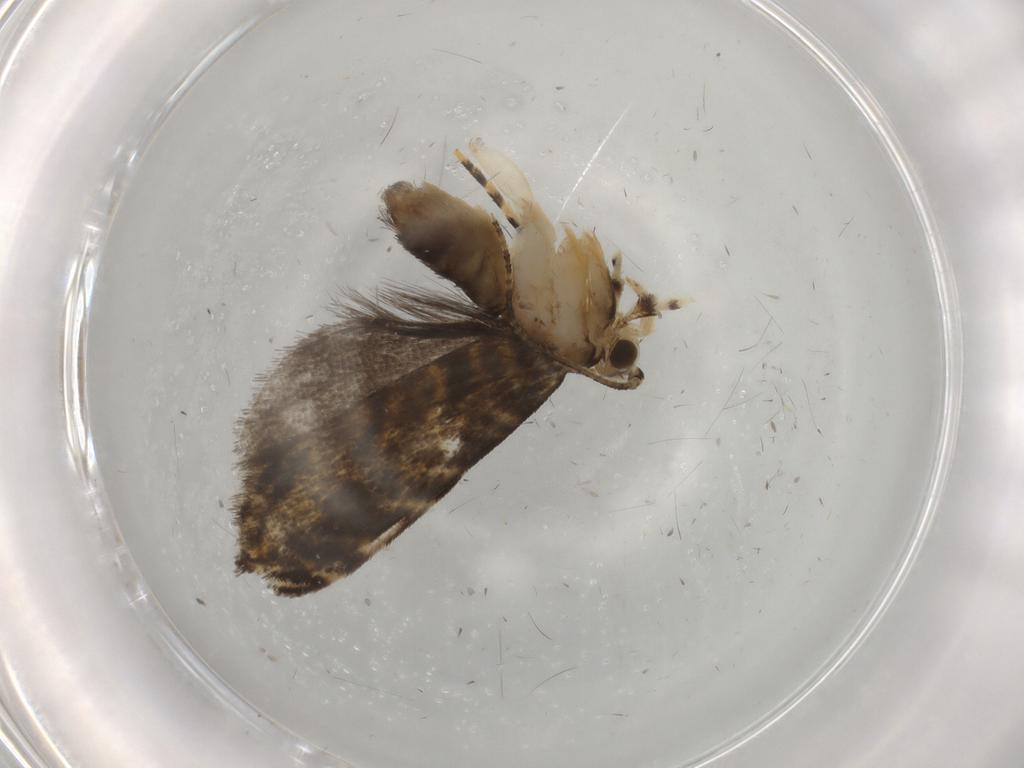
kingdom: Animalia
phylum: Arthropoda
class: Insecta
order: Lepidoptera
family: Tineidae
